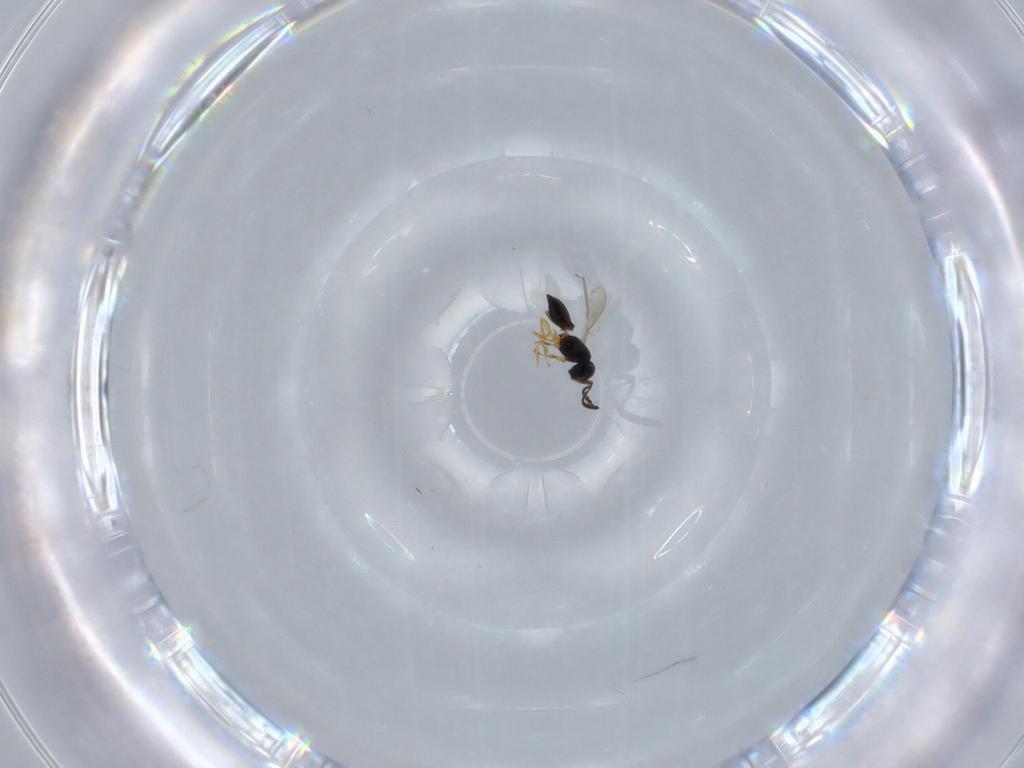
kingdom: Animalia
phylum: Arthropoda
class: Insecta
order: Hymenoptera
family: Scelionidae
